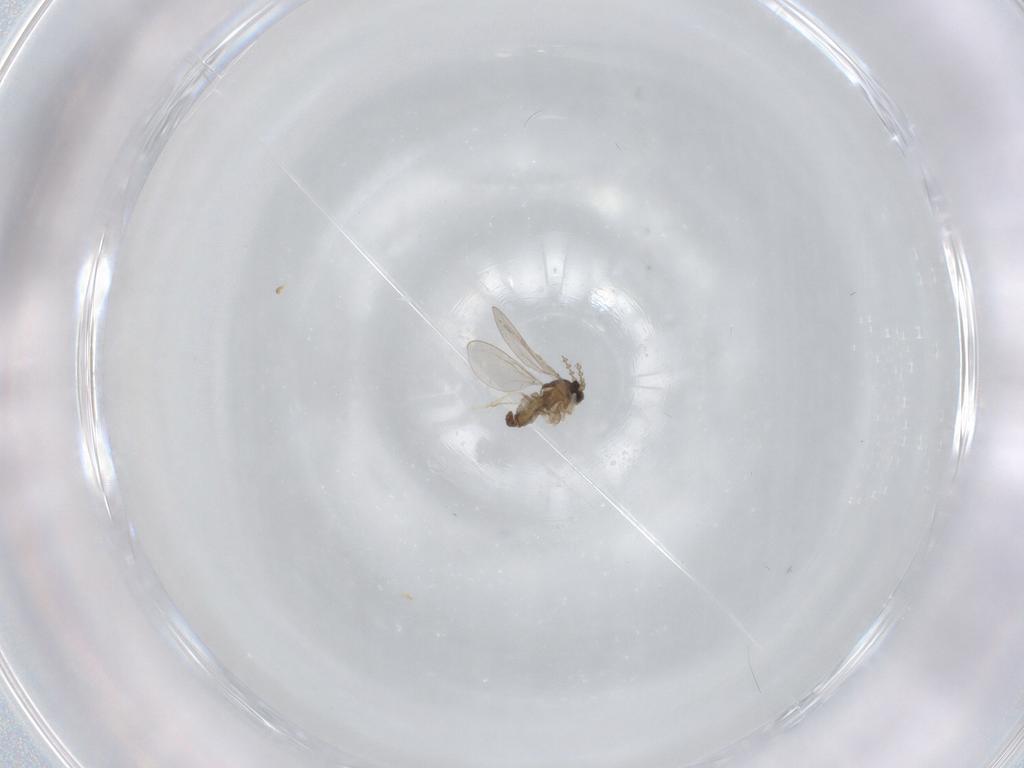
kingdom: Animalia
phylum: Arthropoda
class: Insecta
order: Diptera
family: Cecidomyiidae
